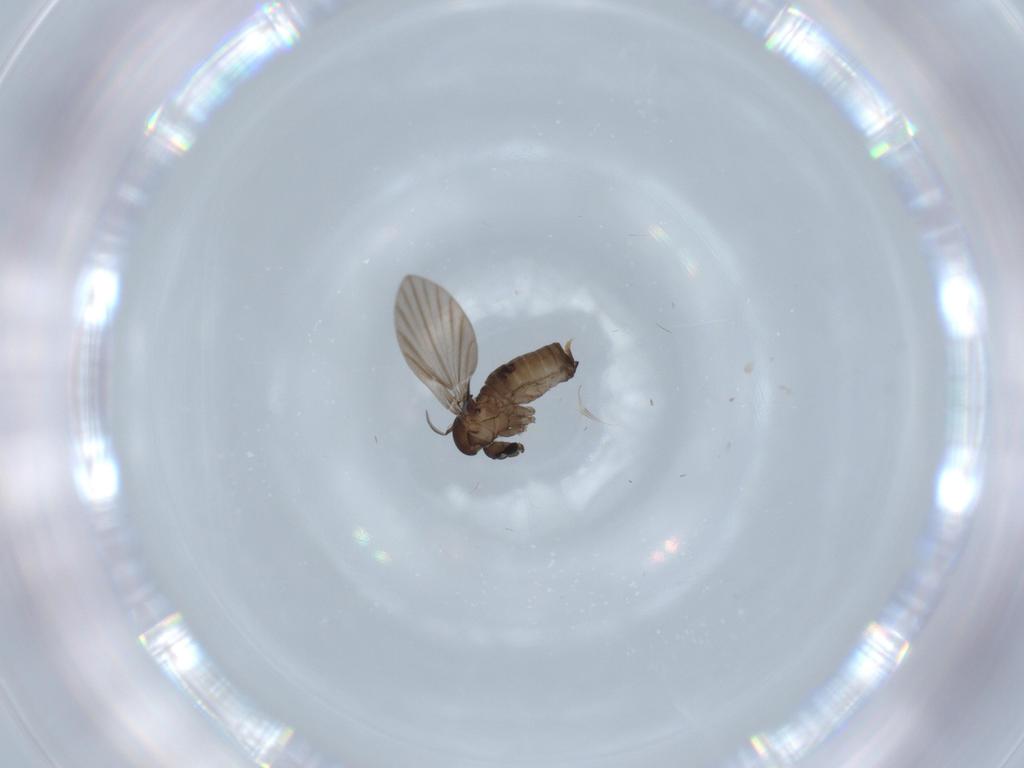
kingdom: Animalia
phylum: Arthropoda
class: Insecta
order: Diptera
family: Psychodidae
